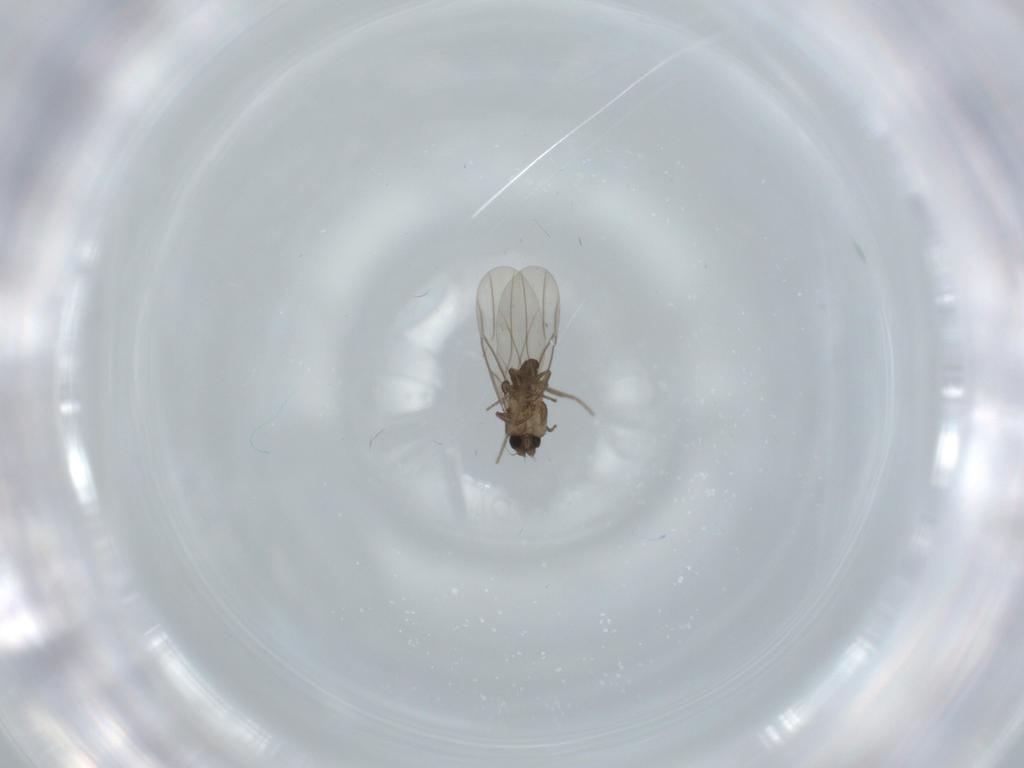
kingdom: Animalia
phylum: Arthropoda
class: Insecta
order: Diptera
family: Phoridae
